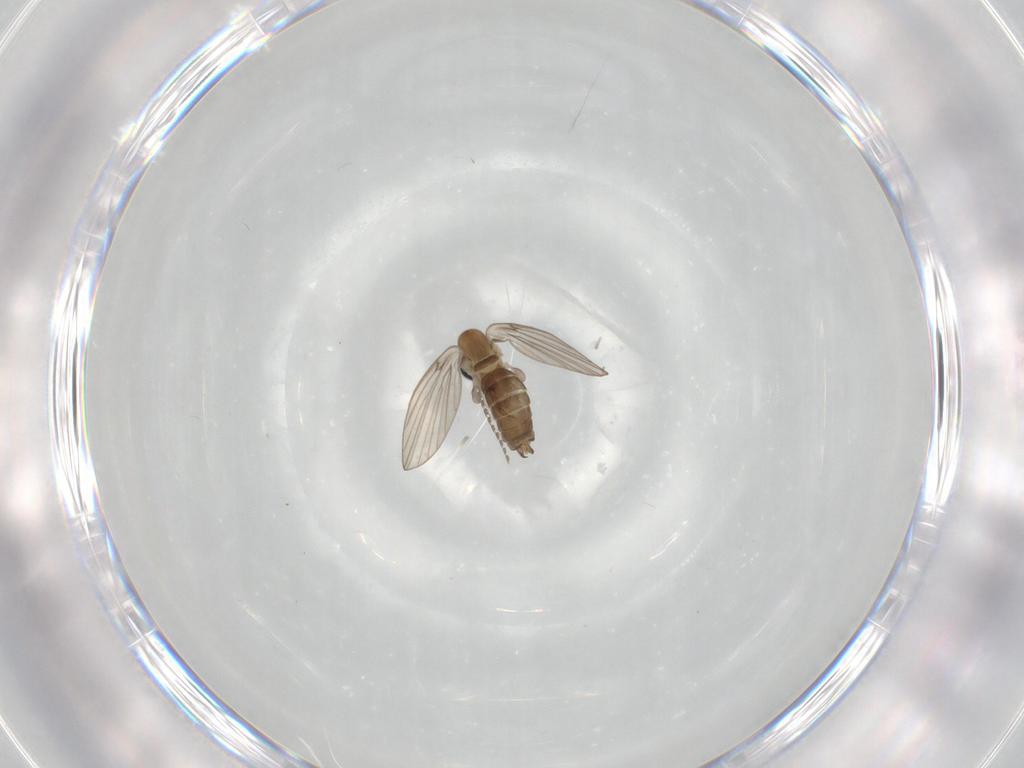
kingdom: Animalia
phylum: Arthropoda
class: Insecta
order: Diptera
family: Psychodidae
